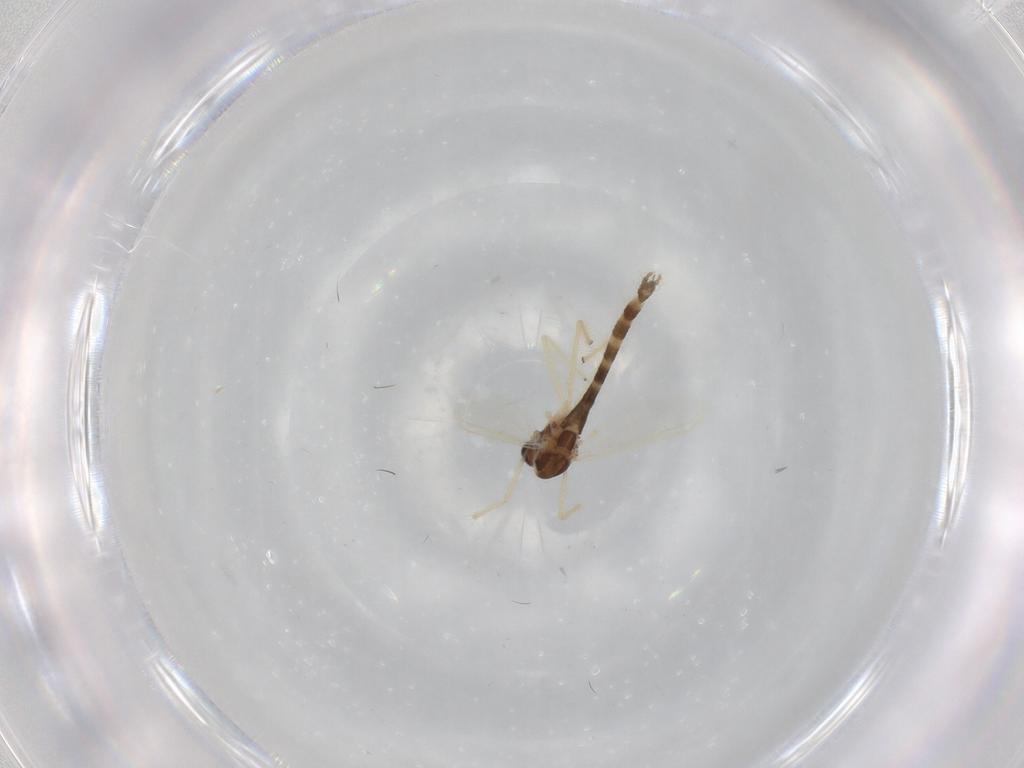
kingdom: Animalia
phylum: Arthropoda
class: Insecta
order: Diptera
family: Chironomidae
